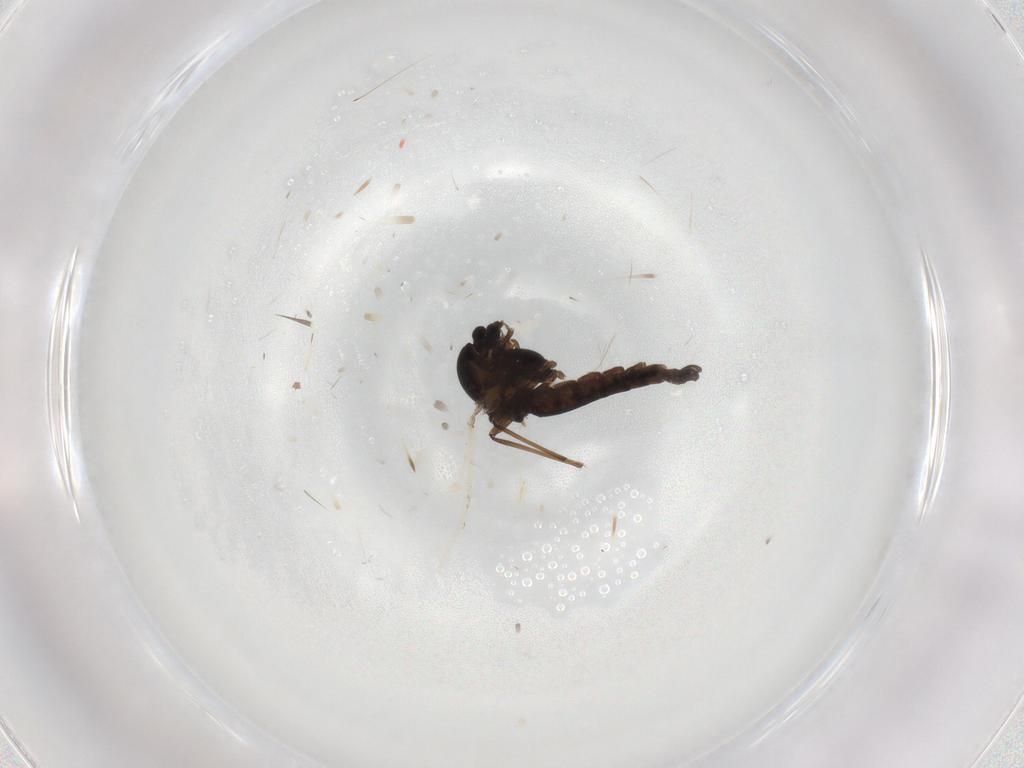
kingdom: Animalia
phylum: Arthropoda
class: Insecta
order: Diptera
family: Chironomidae
